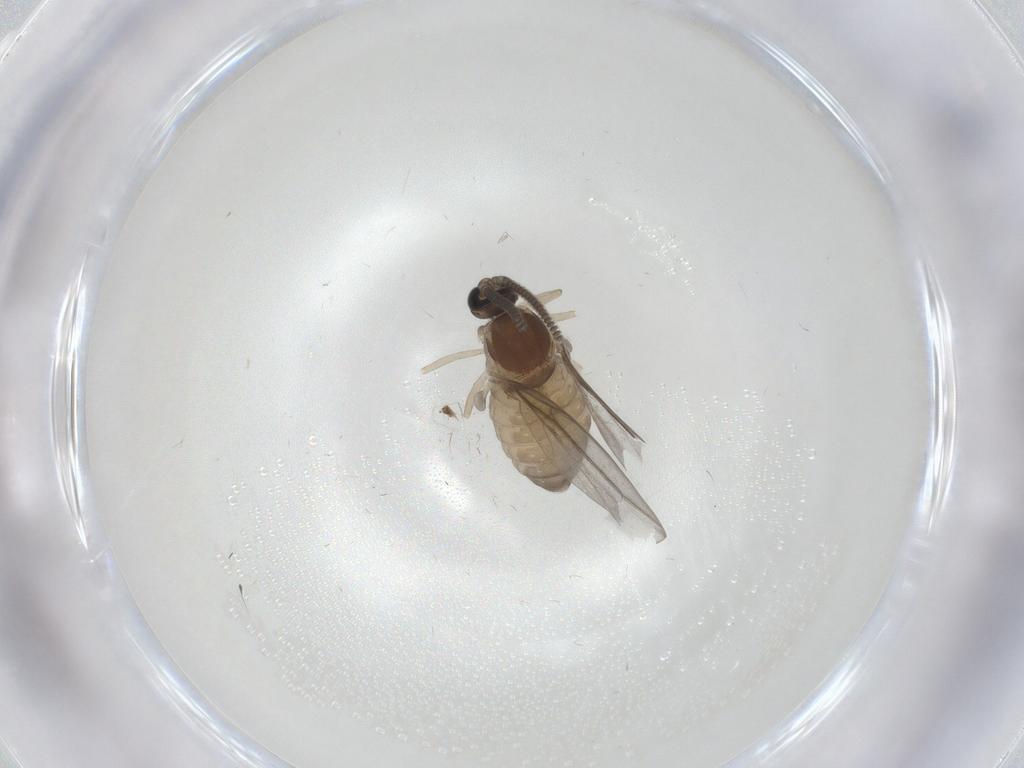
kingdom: Animalia
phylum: Arthropoda
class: Insecta
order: Diptera
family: Cecidomyiidae
